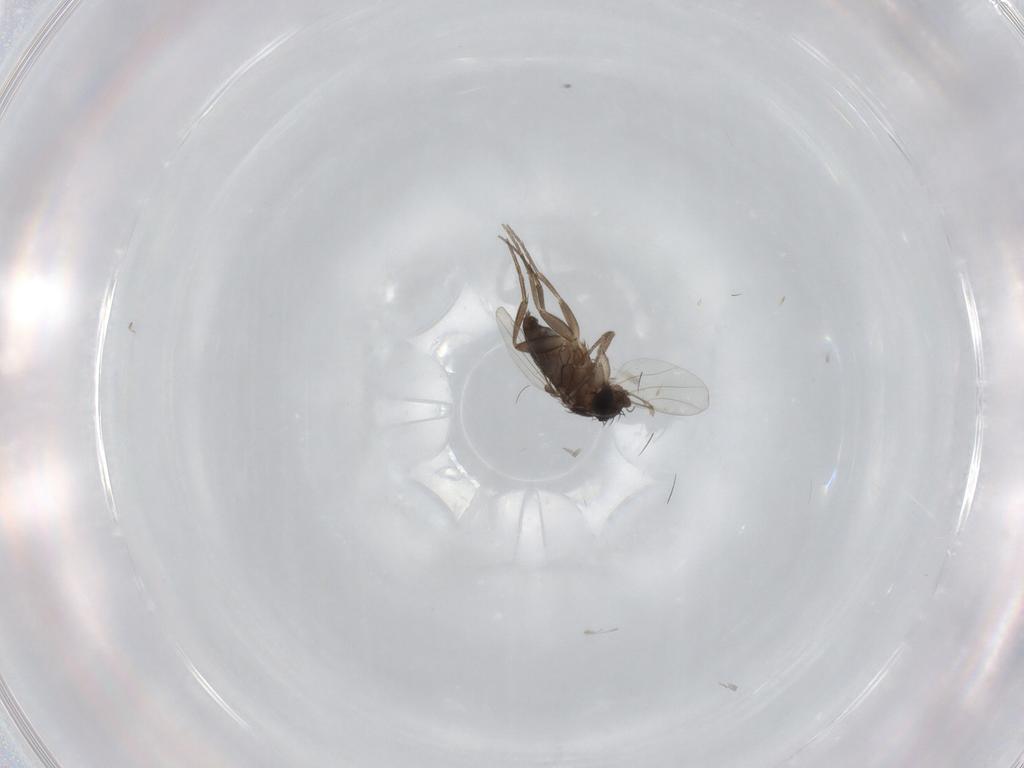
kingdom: Animalia
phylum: Arthropoda
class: Insecta
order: Diptera
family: Phoridae
